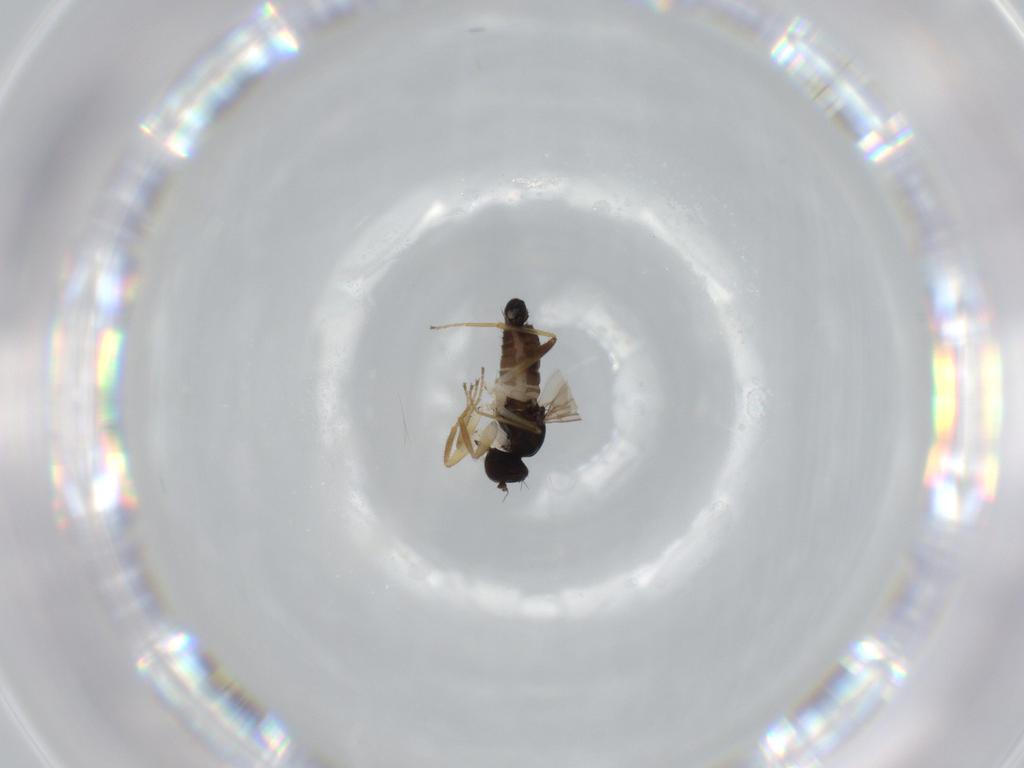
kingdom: Animalia
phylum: Arthropoda
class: Insecta
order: Diptera
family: Hybotidae
